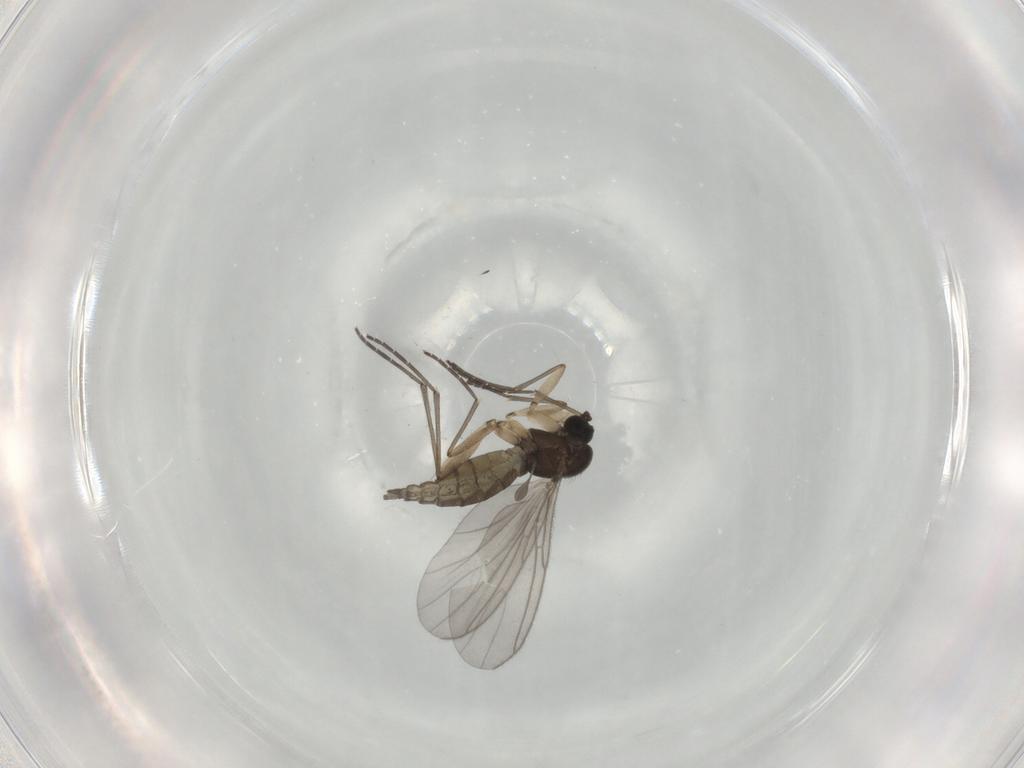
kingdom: Animalia
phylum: Arthropoda
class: Insecta
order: Diptera
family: Sciaridae
